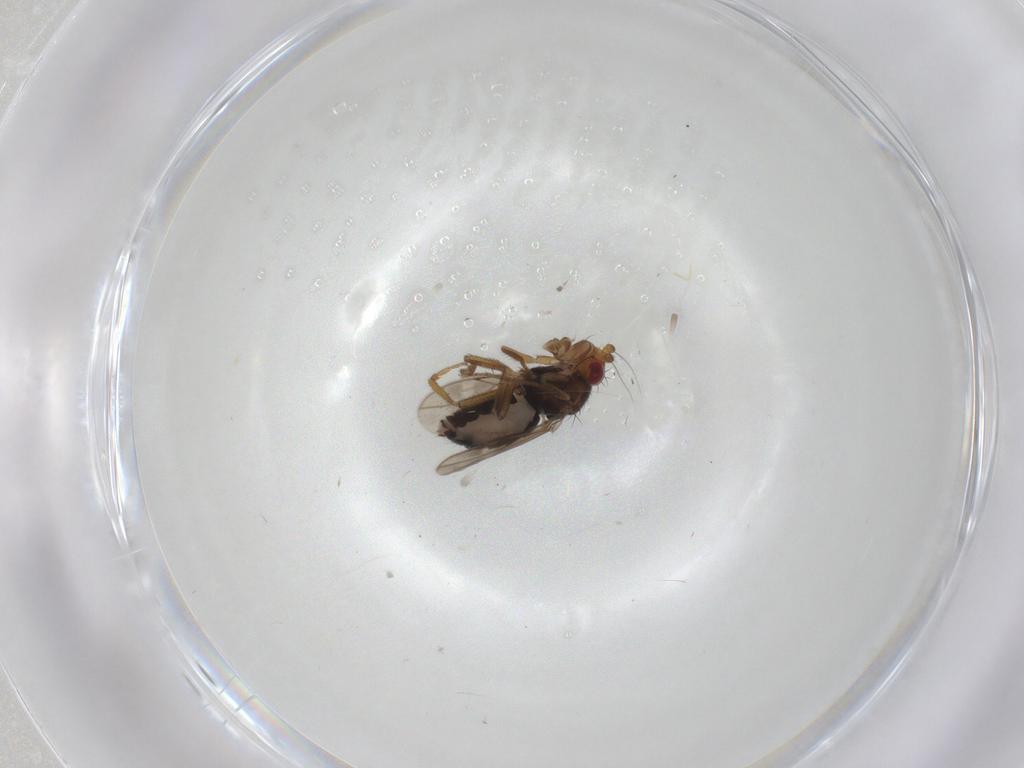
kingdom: Animalia
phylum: Arthropoda
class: Insecta
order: Diptera
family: Sphaeroceridae
